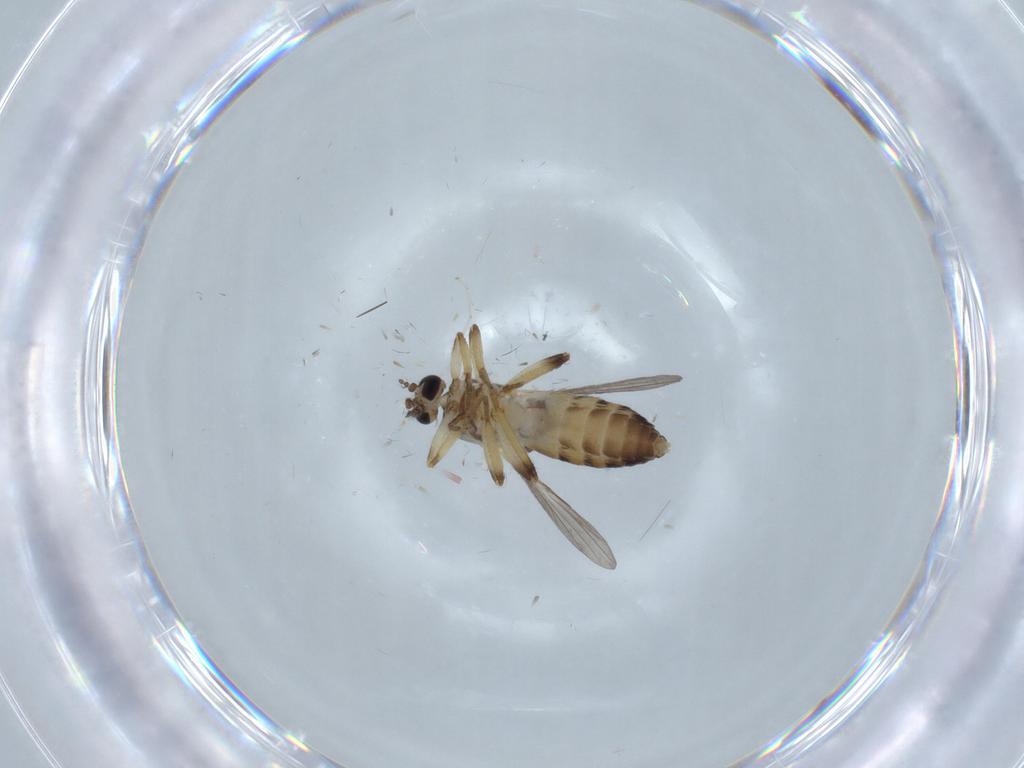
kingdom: Animalia
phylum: Arthropoda
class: Insecta
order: Diptera
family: Ceratopogonidae
